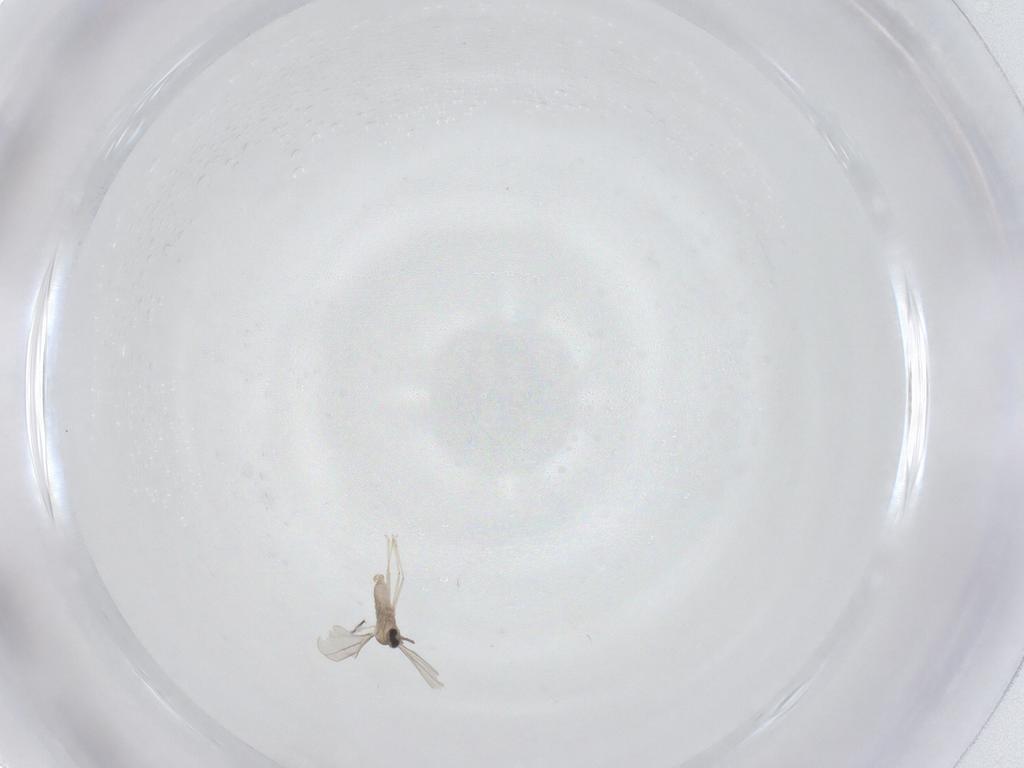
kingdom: Animalia
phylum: Arthropoda
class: Insecta
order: Diptera
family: Cecidomyiidae
